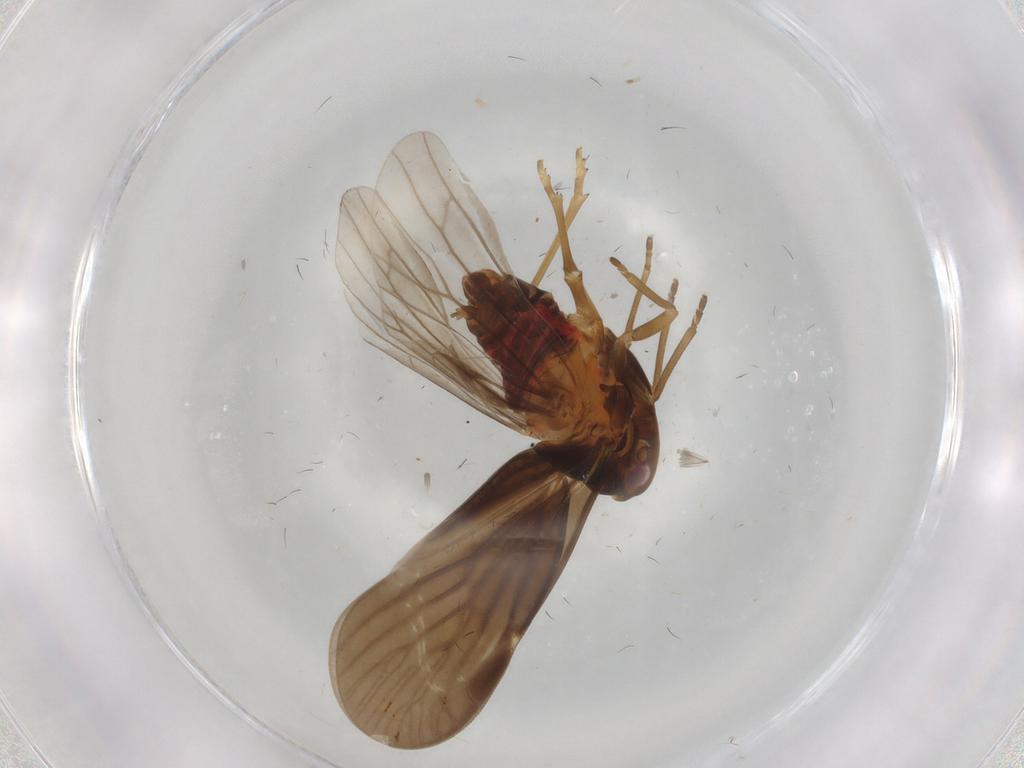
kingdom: Animalia
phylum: Arthropoda
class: Insecta
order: Hemiptera
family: Derbidae
